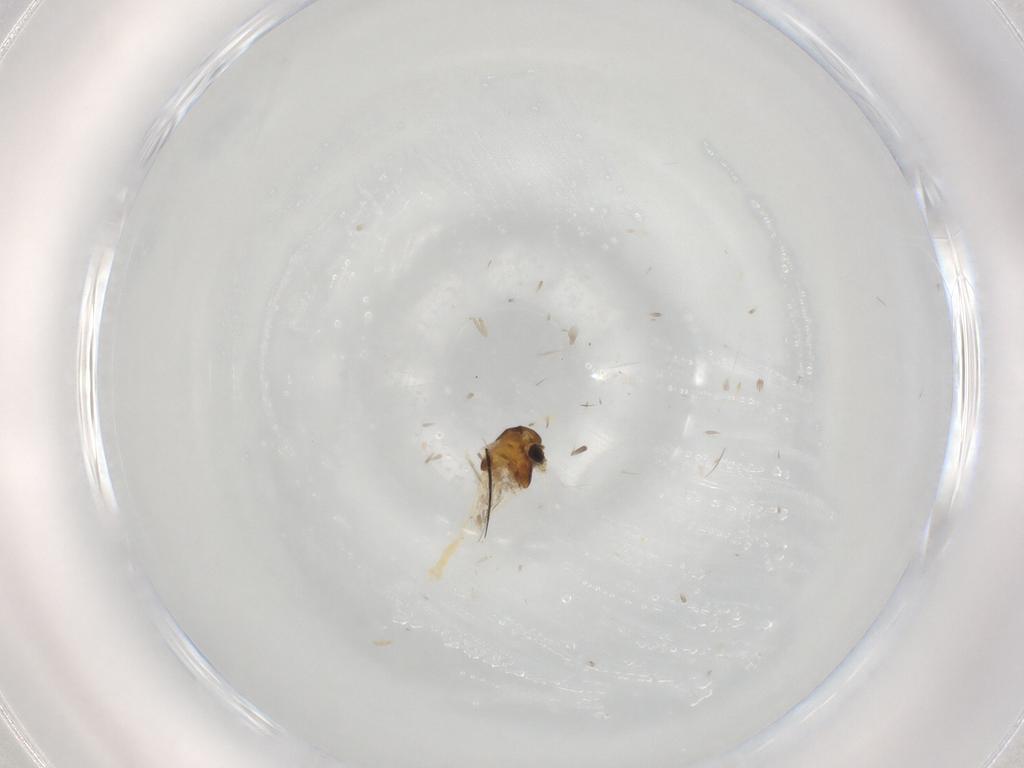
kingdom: Animalia
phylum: Arthropoda
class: Insecta
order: Diptera
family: Chironomidae
